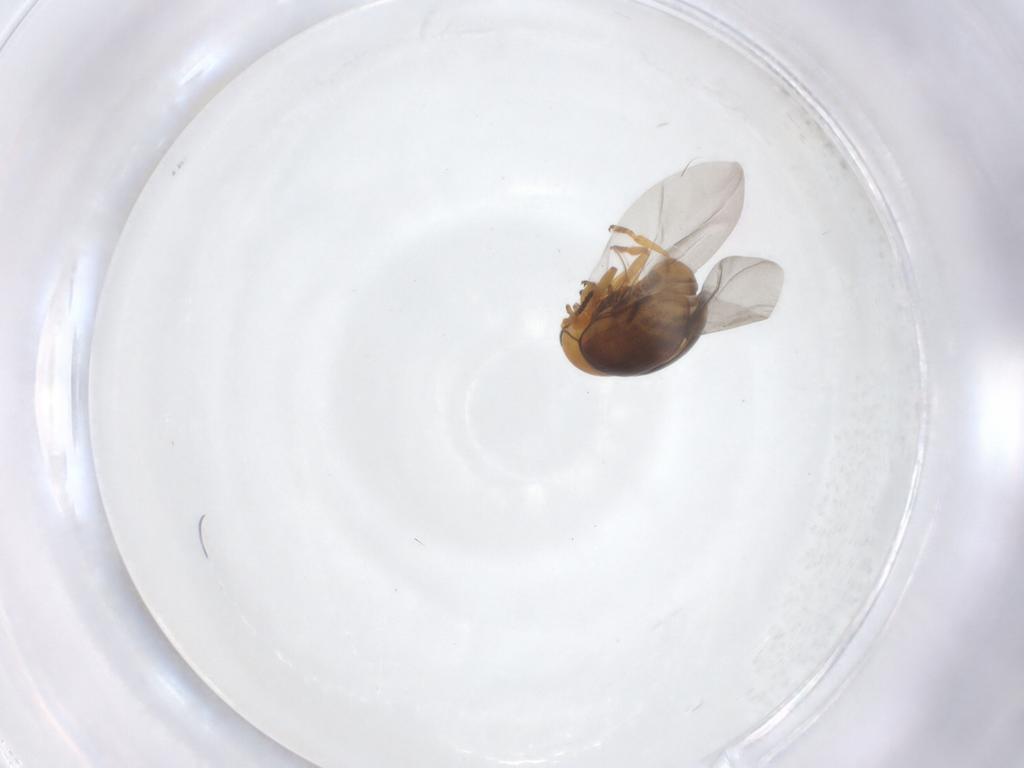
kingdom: Animalia
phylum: Arthropoda
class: Insecta
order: Coleoptera
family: Chrysomelidae
